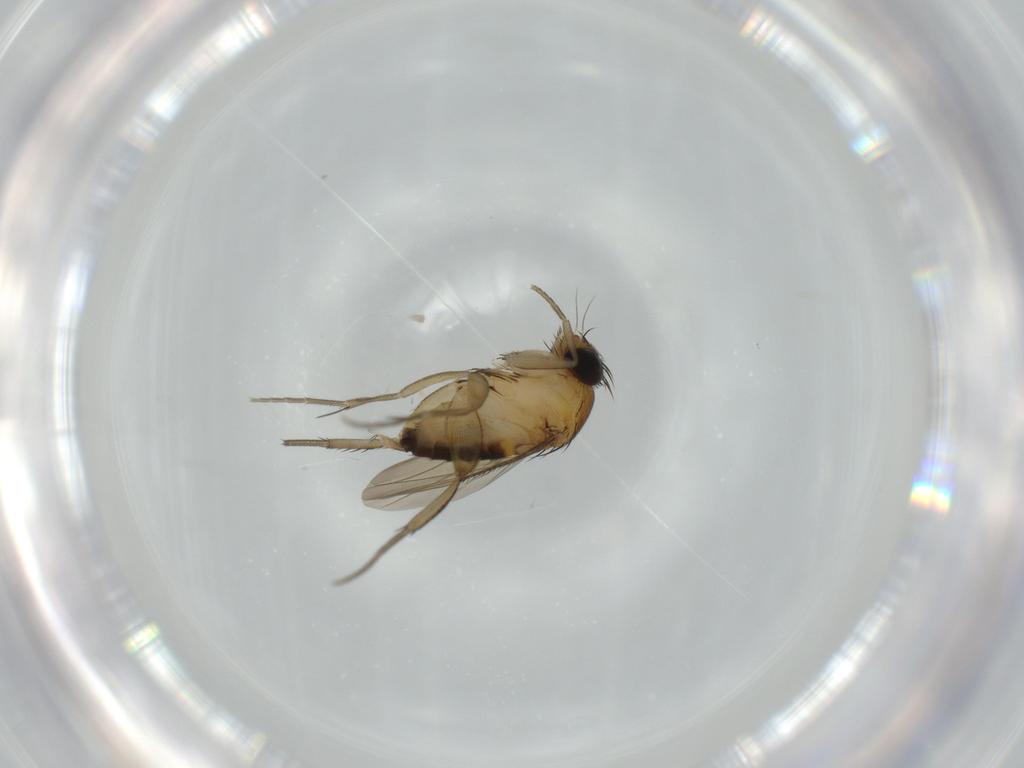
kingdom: Animalia
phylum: Arthropoda
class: Insecta
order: Diptera
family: Phoridae
